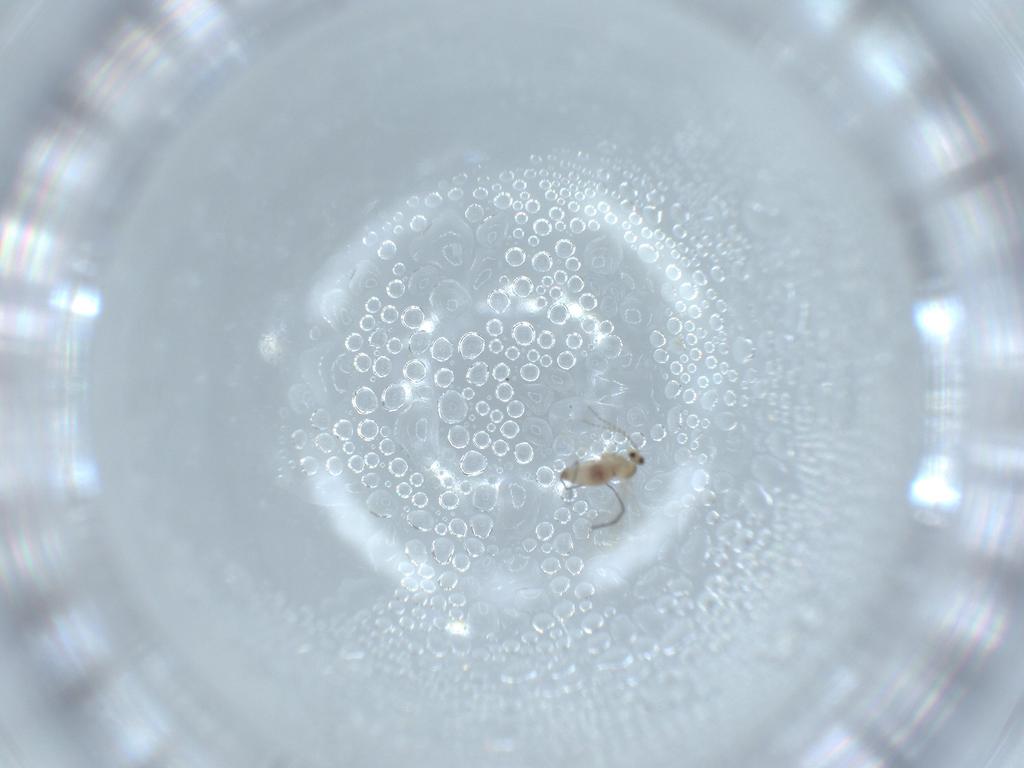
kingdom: Animalia
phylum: Arthropoda
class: Insecta
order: Diptera
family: Cecidomyiidae
